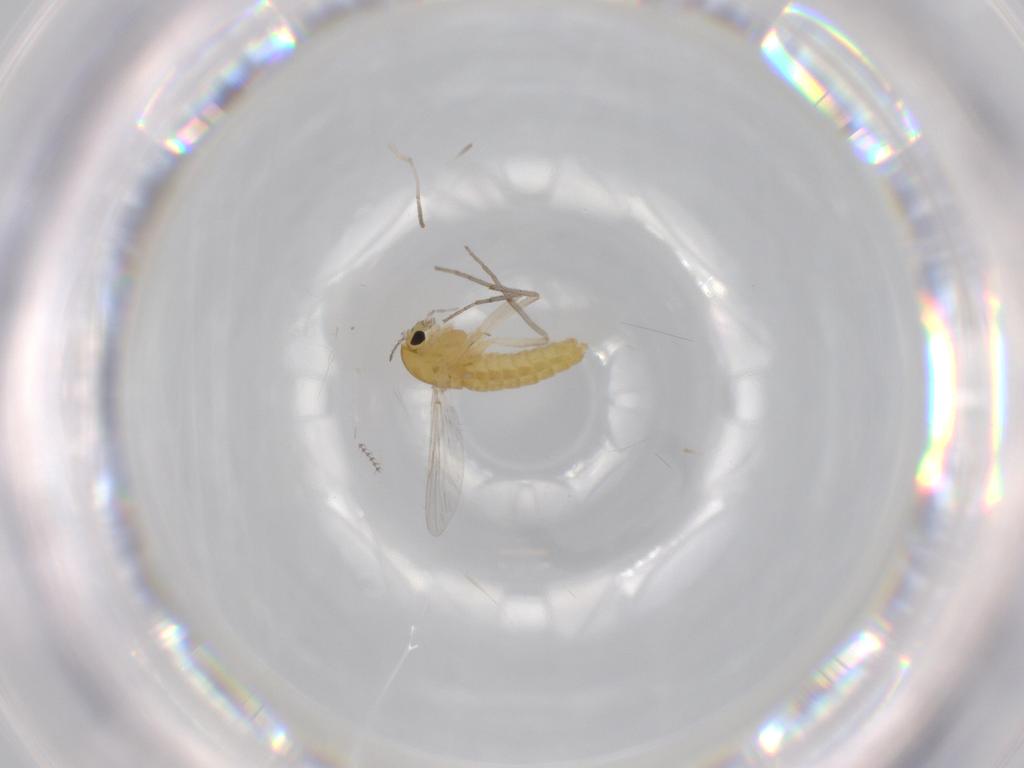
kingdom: Animalia
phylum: Arthropoda
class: Insecta
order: Diptera
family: Chironomidae
